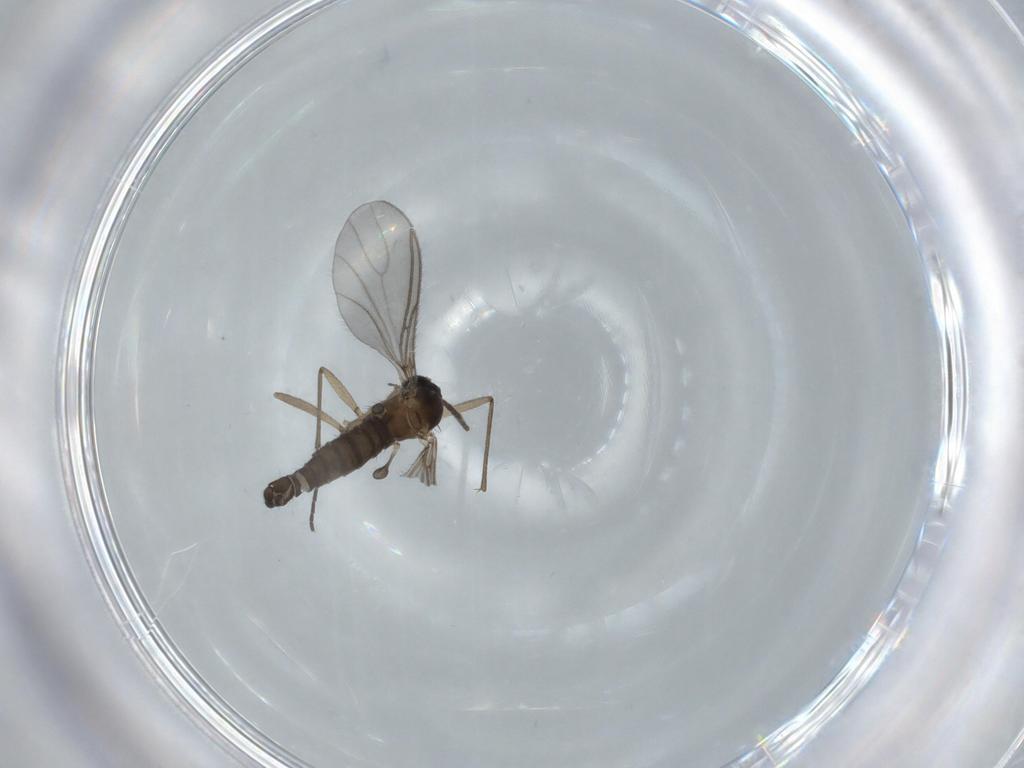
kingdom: Animalia
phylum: Arthropoda
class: Insecta
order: Diptera
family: Sciaridae
